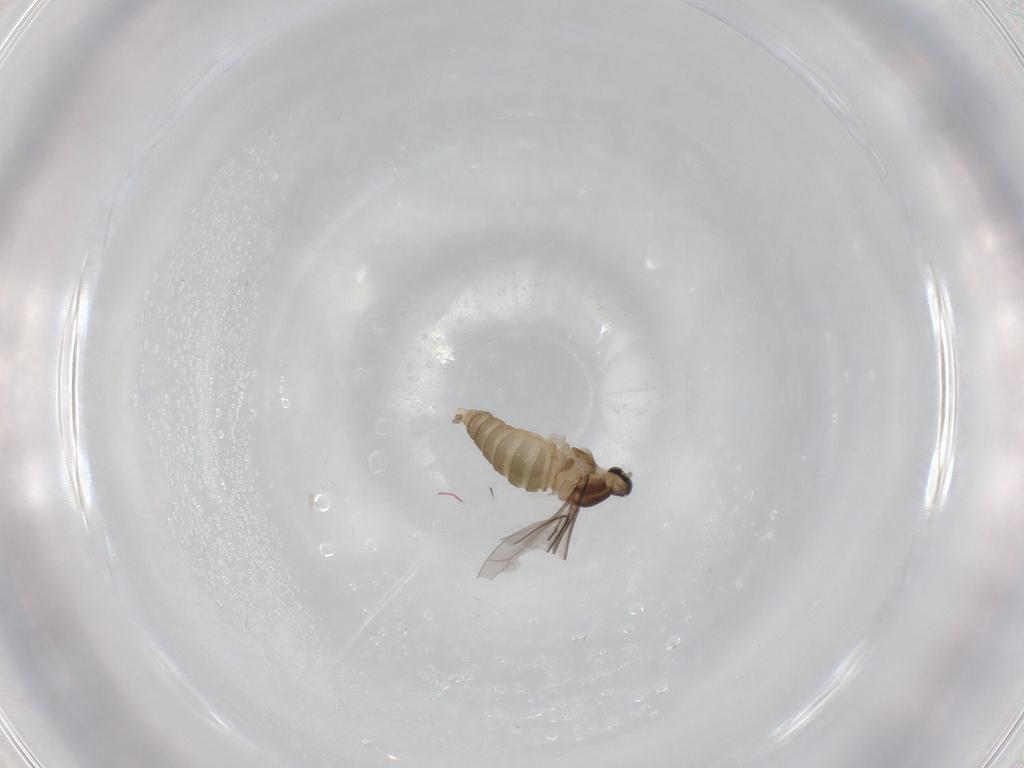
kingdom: Animalia
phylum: Arthropoda
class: Insecta
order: Diptera
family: Cecidomyiidae
